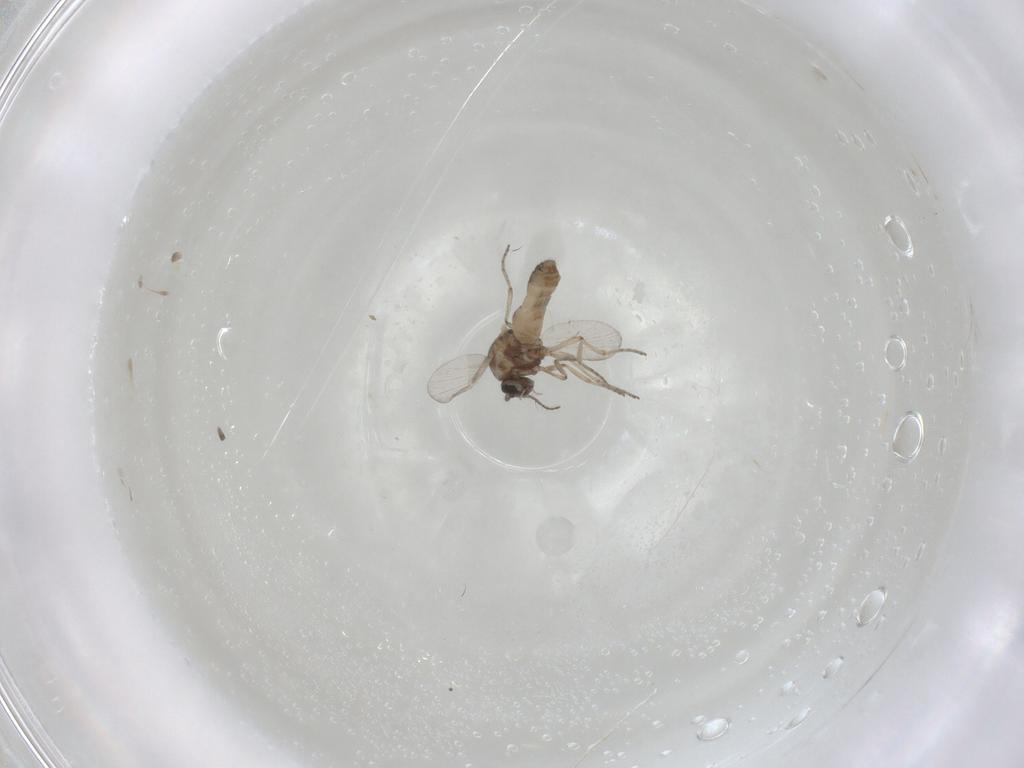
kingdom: Animalia
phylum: Arthropoda
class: Insecta
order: Diptera
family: Ceratopogonidae
